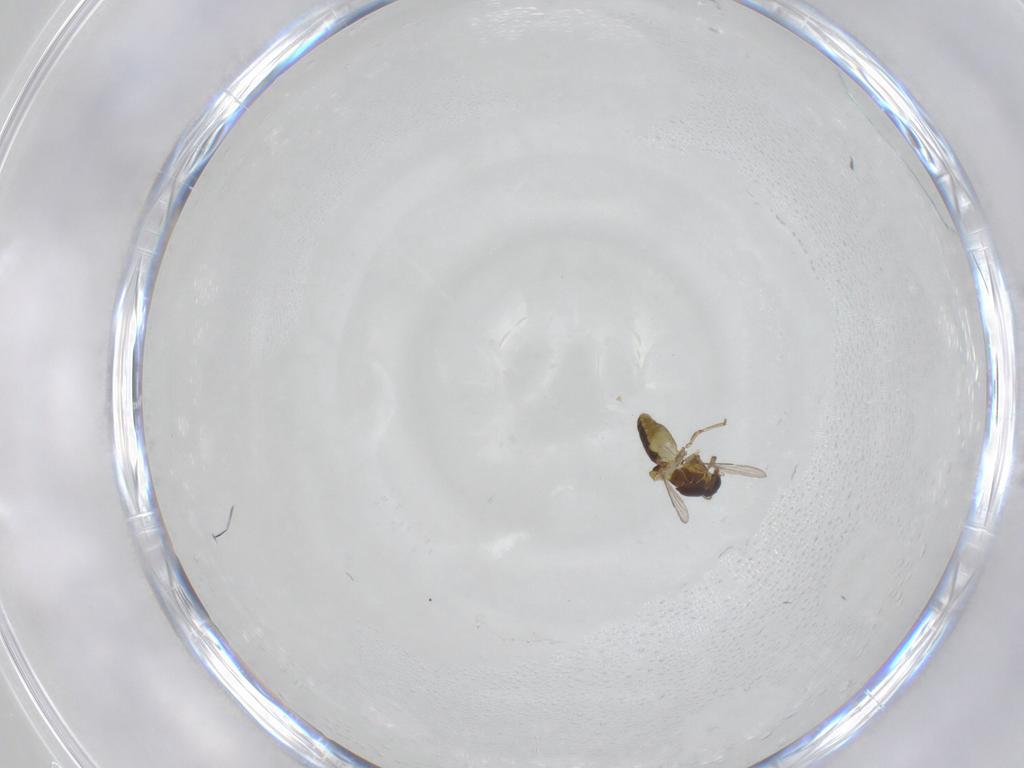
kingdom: Animalia
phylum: Arthropoda
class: Insecta
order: Diptera
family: Ceratopogonidae
